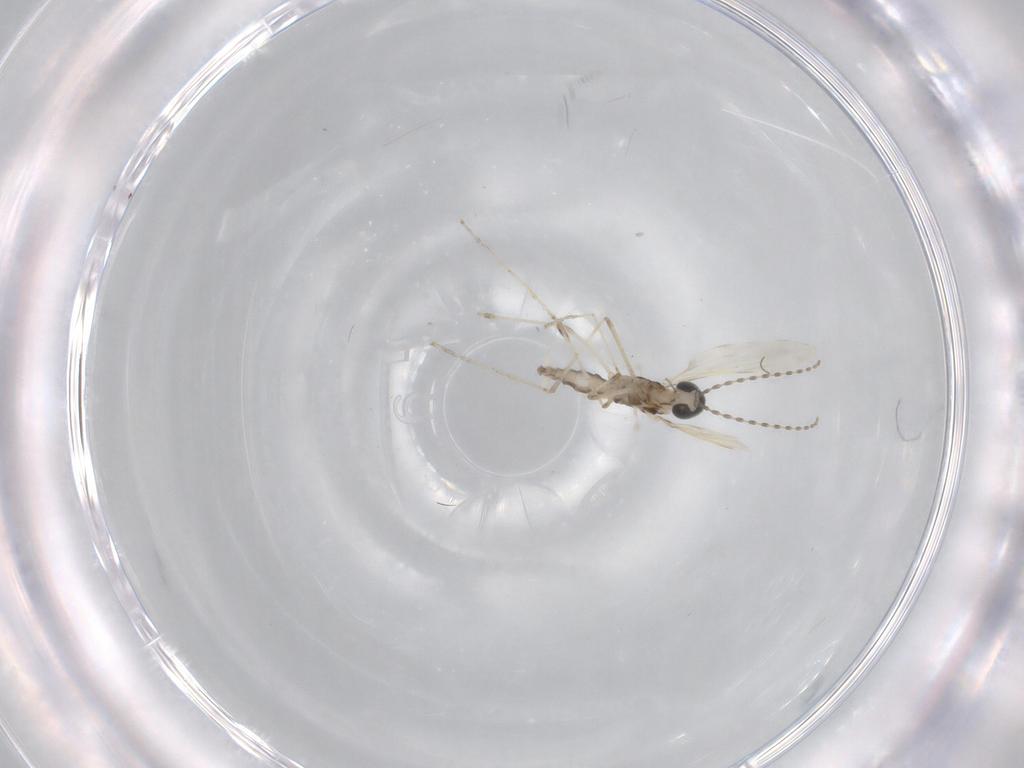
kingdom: Animalia
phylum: Arthropoda
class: Insecta
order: Diptera
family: Cecidomyiidae
